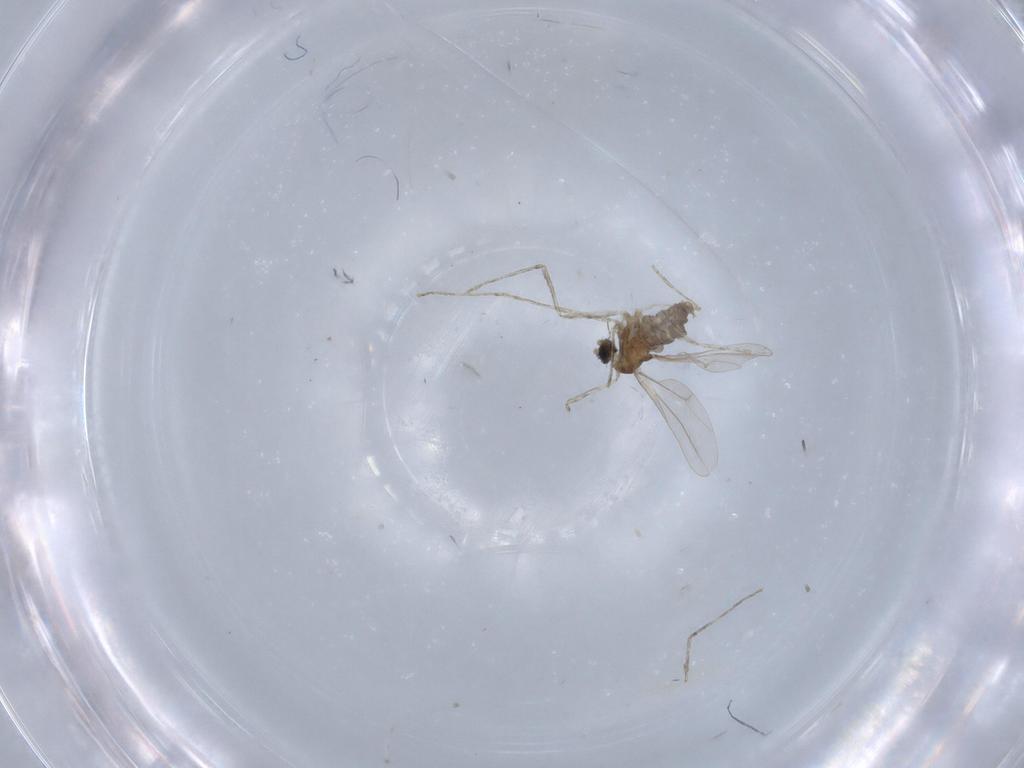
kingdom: Animalia
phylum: Arthropoda
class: Insecta
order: Diptera
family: Cecidomyiidae
